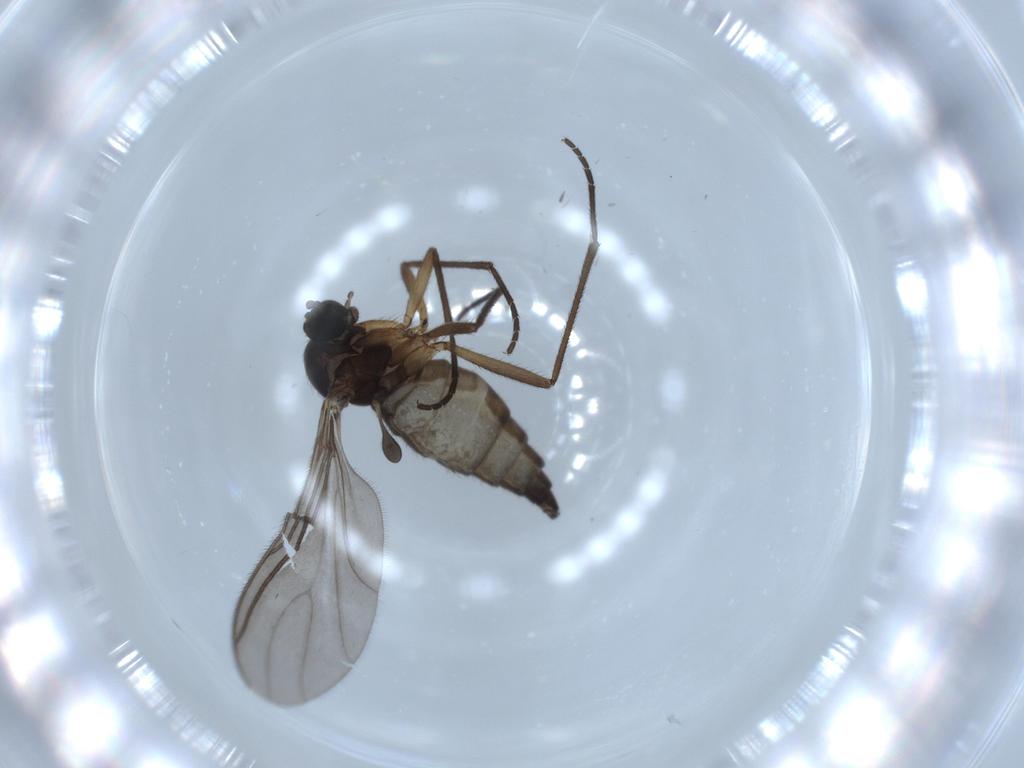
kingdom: Animalia
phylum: Arthropoda
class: Insecta
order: Diptera
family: Sciaridae
